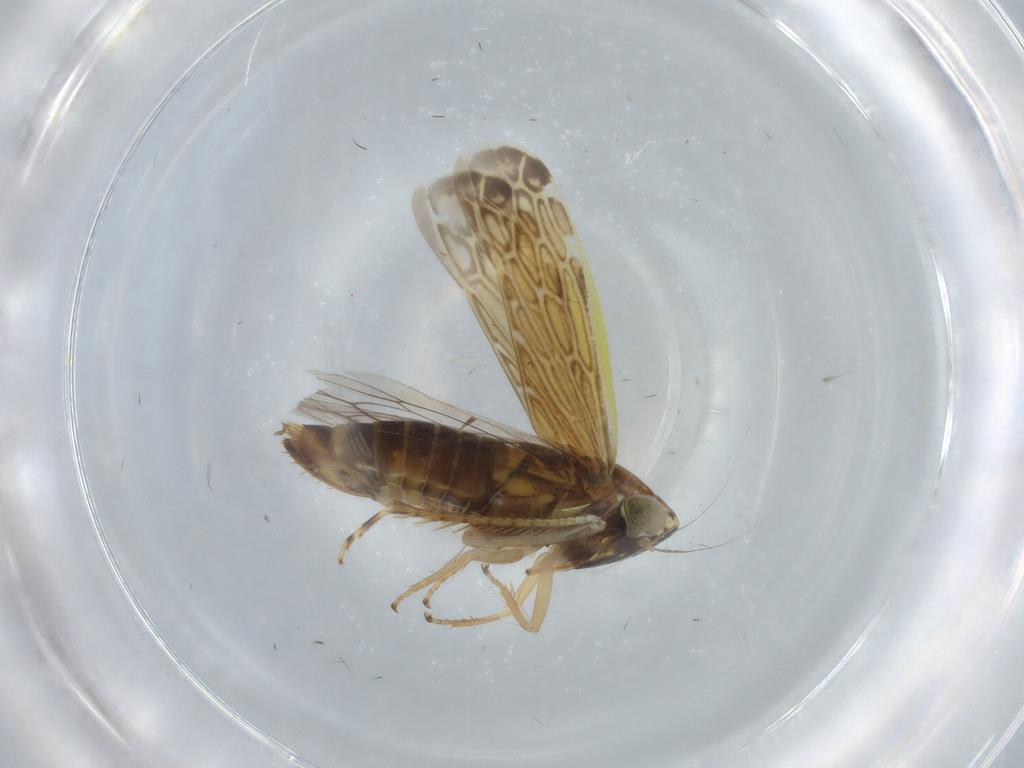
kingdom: Animalia
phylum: Arthropoda
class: Insecta
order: Hemiptera
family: Cicadellidae
